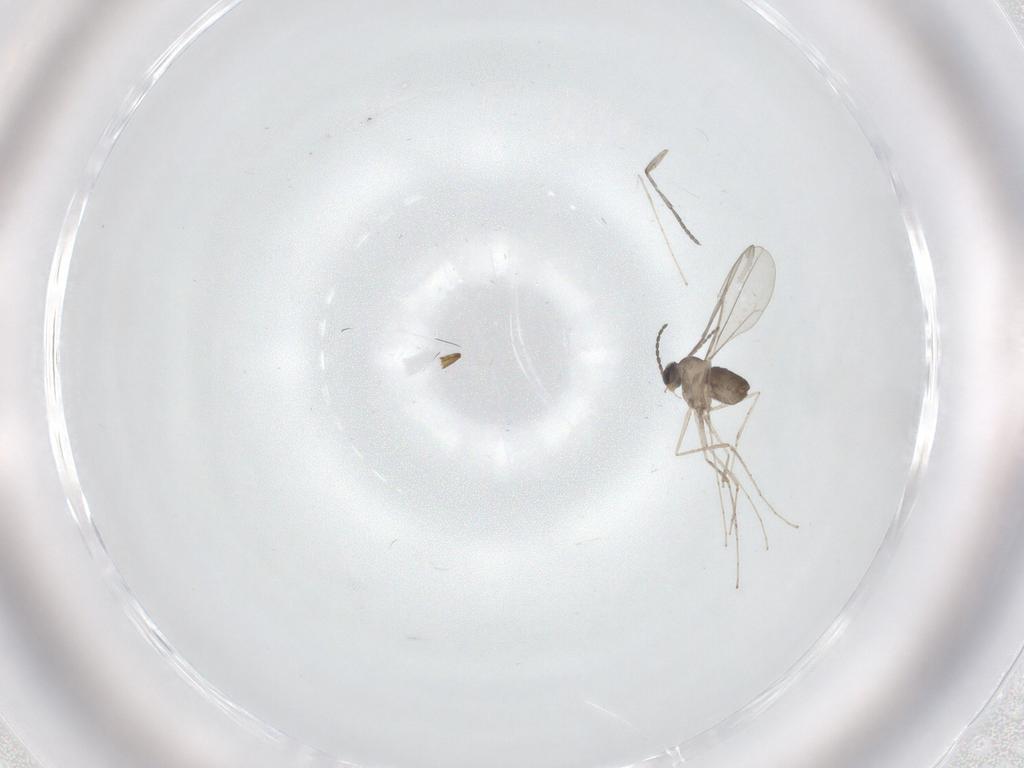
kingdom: Animalia
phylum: Arthropoda
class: Insecta
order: Diptera
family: Cecidomyiidae
